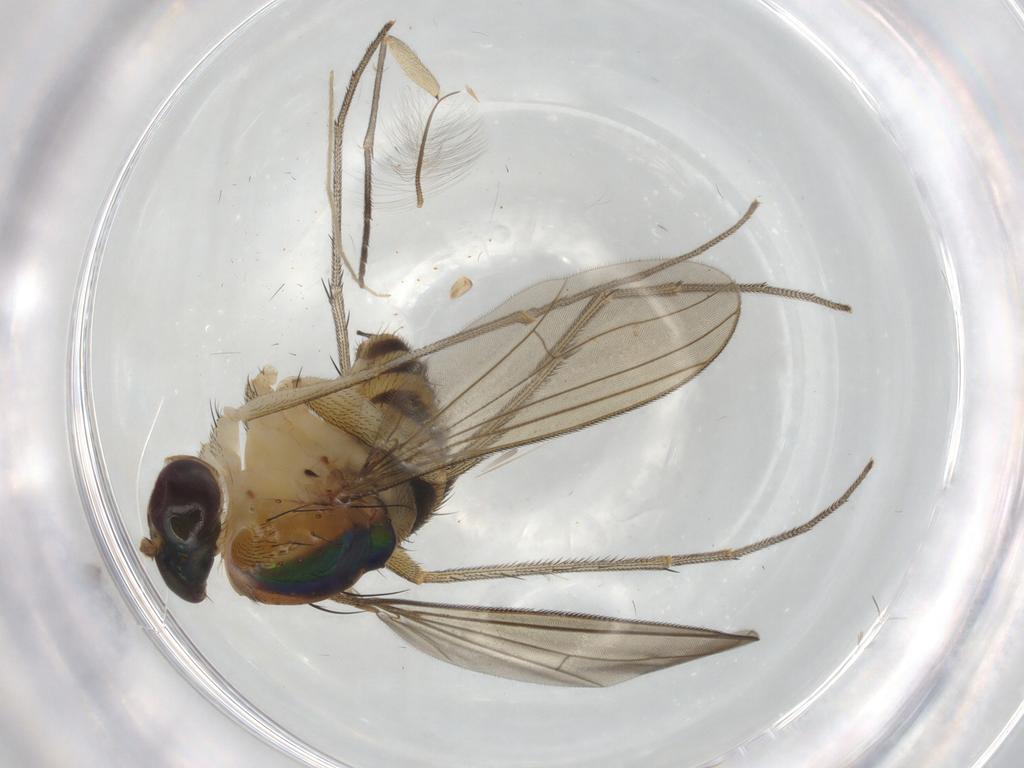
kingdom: Animalia
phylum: Arthropoda
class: Insecta
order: Diptera
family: Chironomidae
